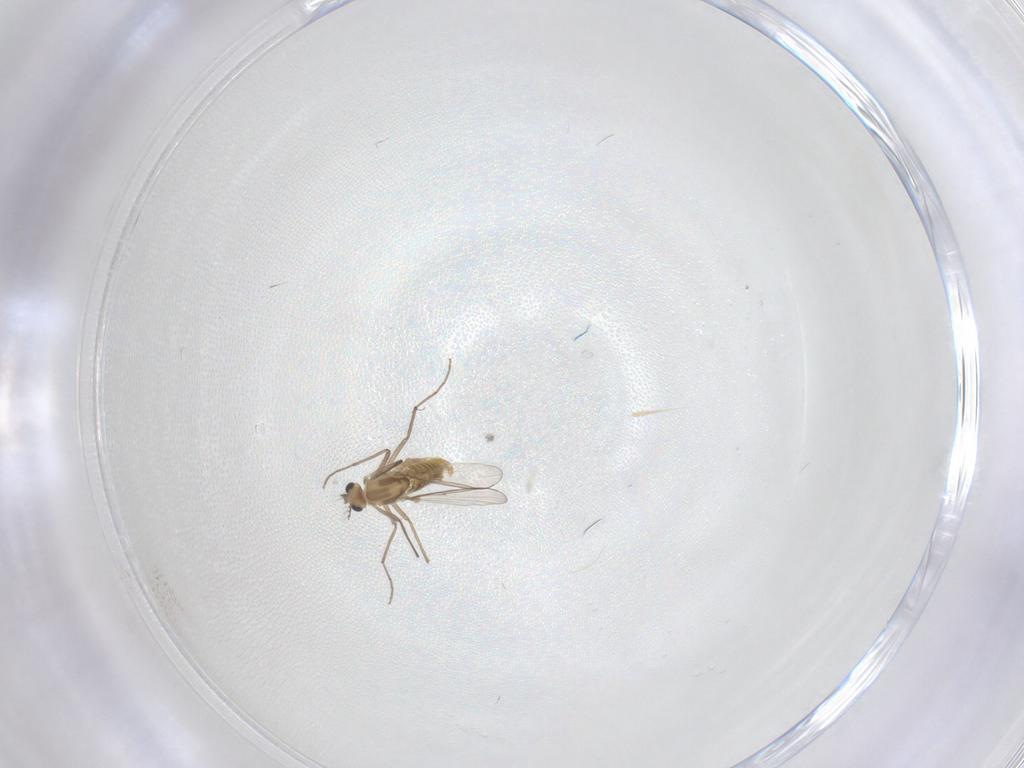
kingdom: Animalia
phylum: Arthropoda
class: Insecta
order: Diptera
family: Chironomidae
